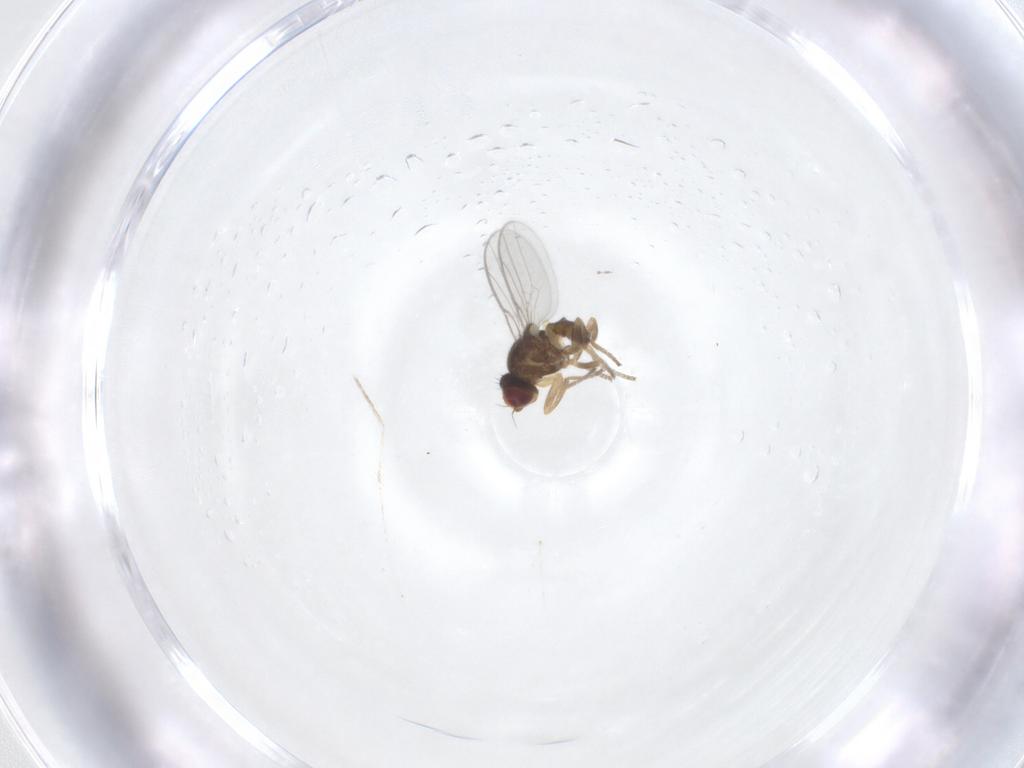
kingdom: Animalia
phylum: Arthropoda
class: Insecta
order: Diptera
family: Chloropidae
